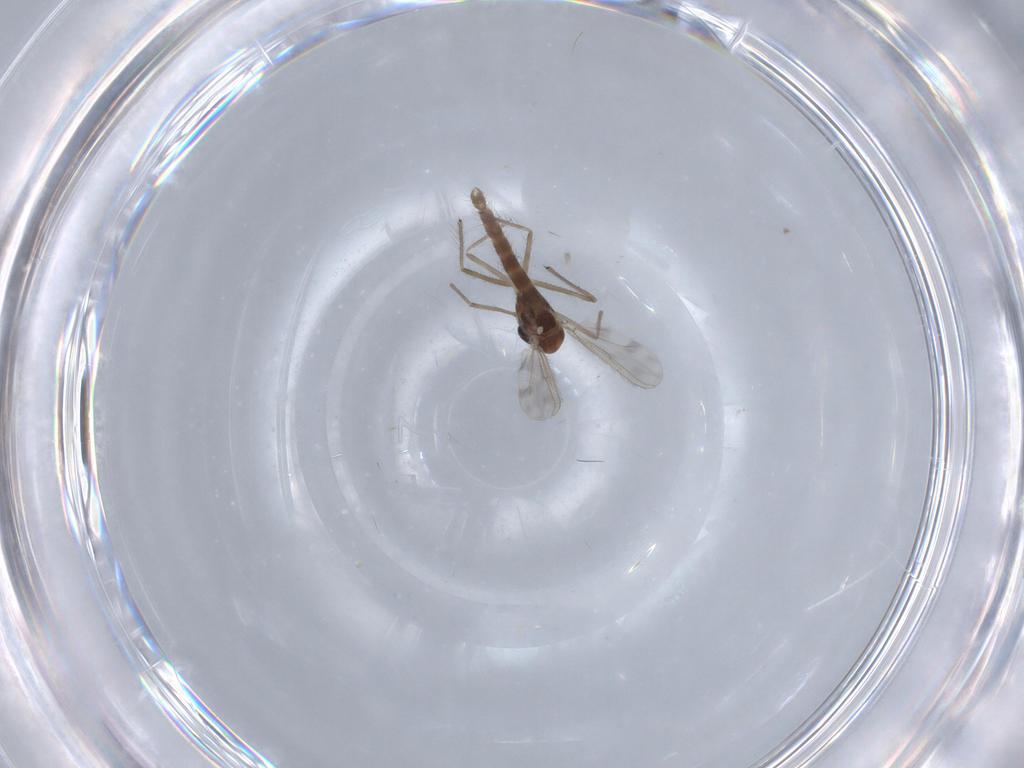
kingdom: Animalia
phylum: Arthropoda
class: Insecta
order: Diptera
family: Chironomidae
